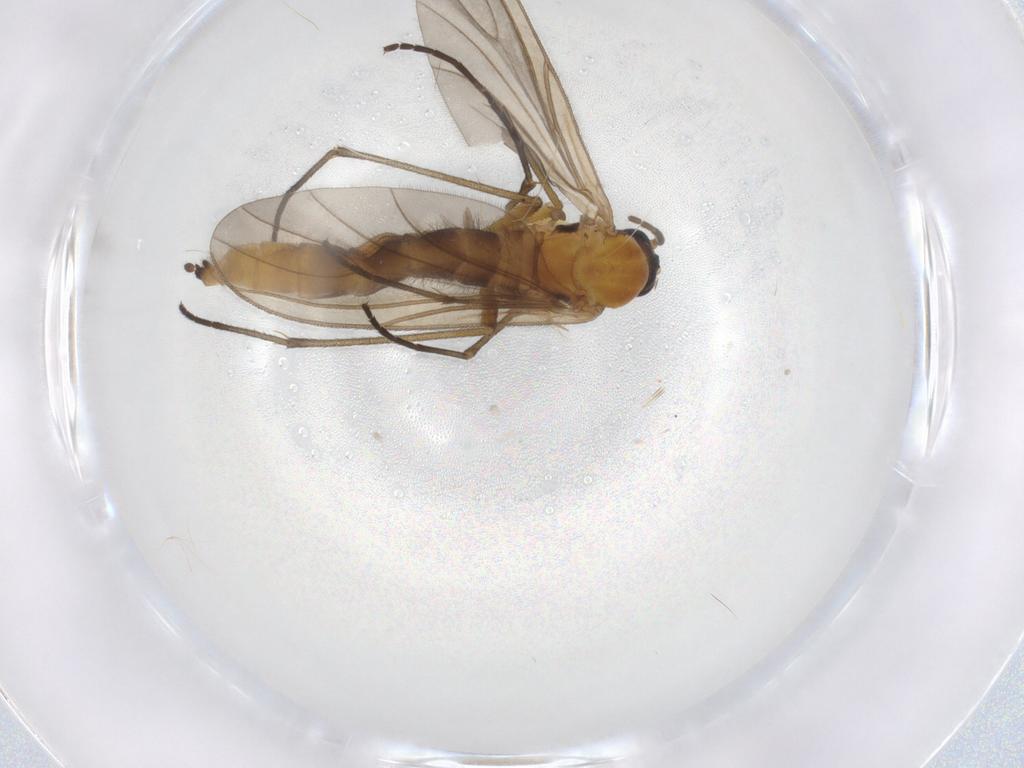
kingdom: Animalia
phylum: Arthropoda
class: Insecta
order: Diptera
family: Sciaridae
